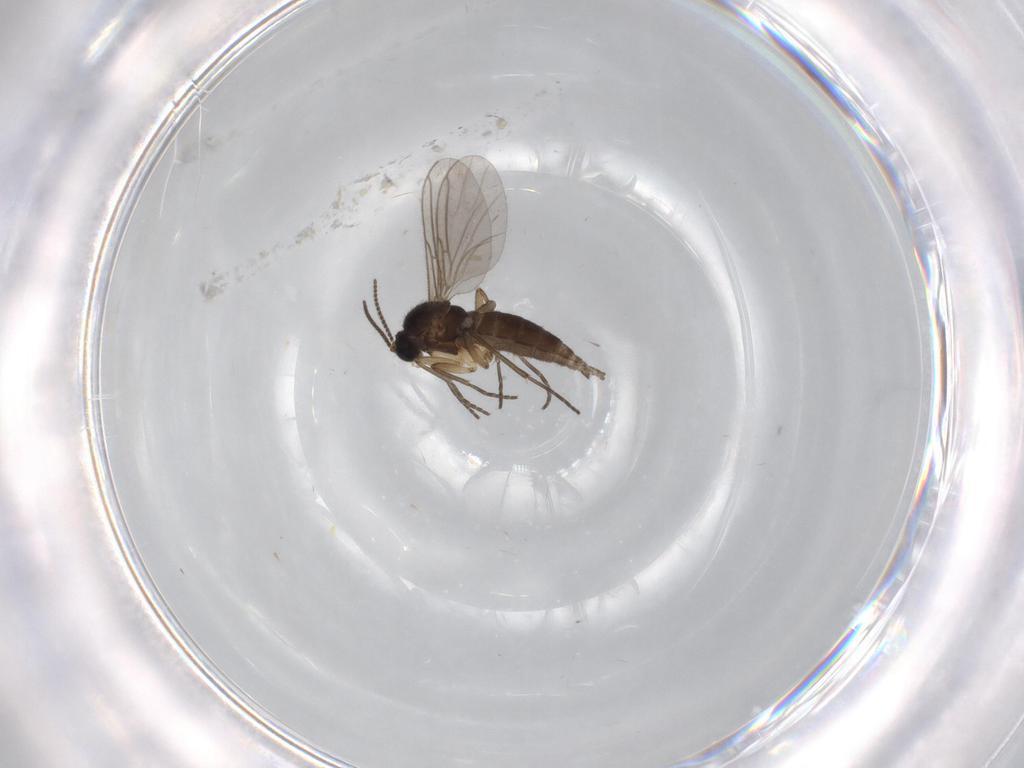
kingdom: Animalia
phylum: Arthropoda
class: Insecta
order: Diptera
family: Sciaridae
